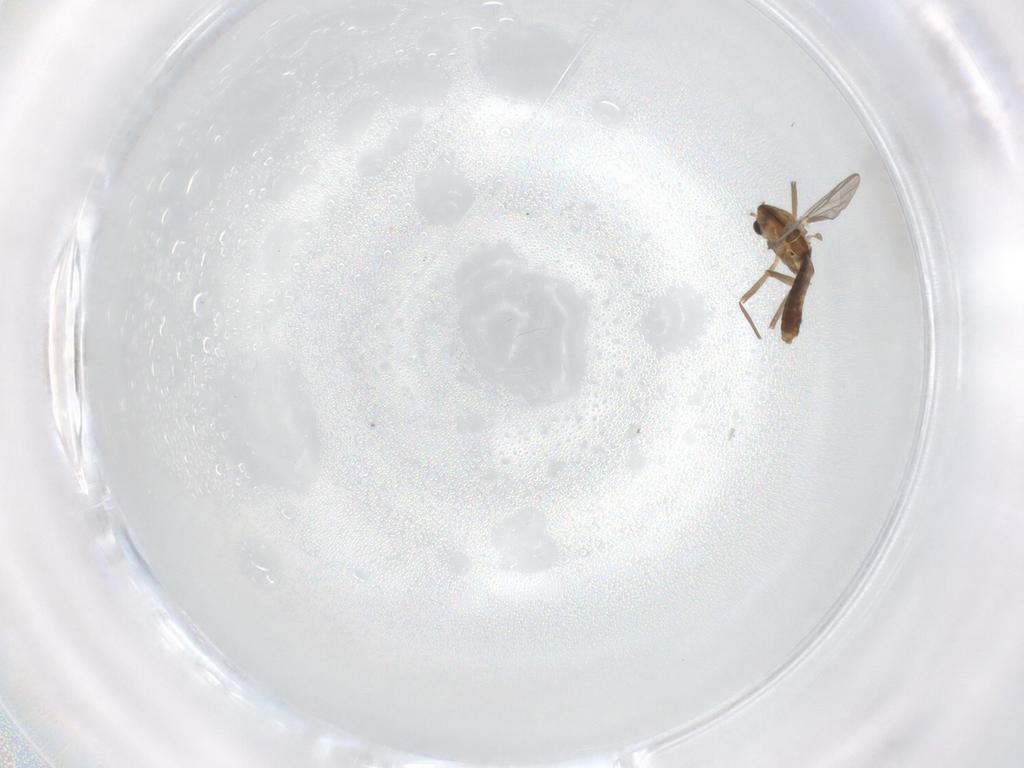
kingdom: Animalia
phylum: Arthropoda
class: Insecta
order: Diptera
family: Chironomidae
